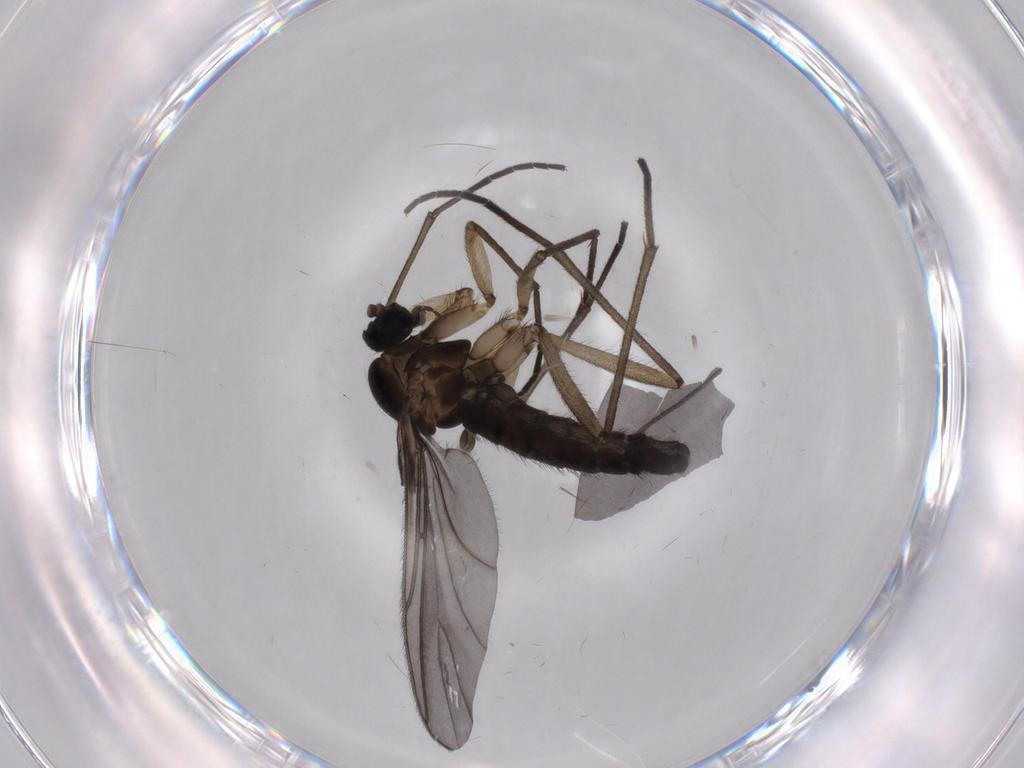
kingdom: Animalia
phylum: Arthropoda
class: Insecta
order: Diptera
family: Sciaridae
